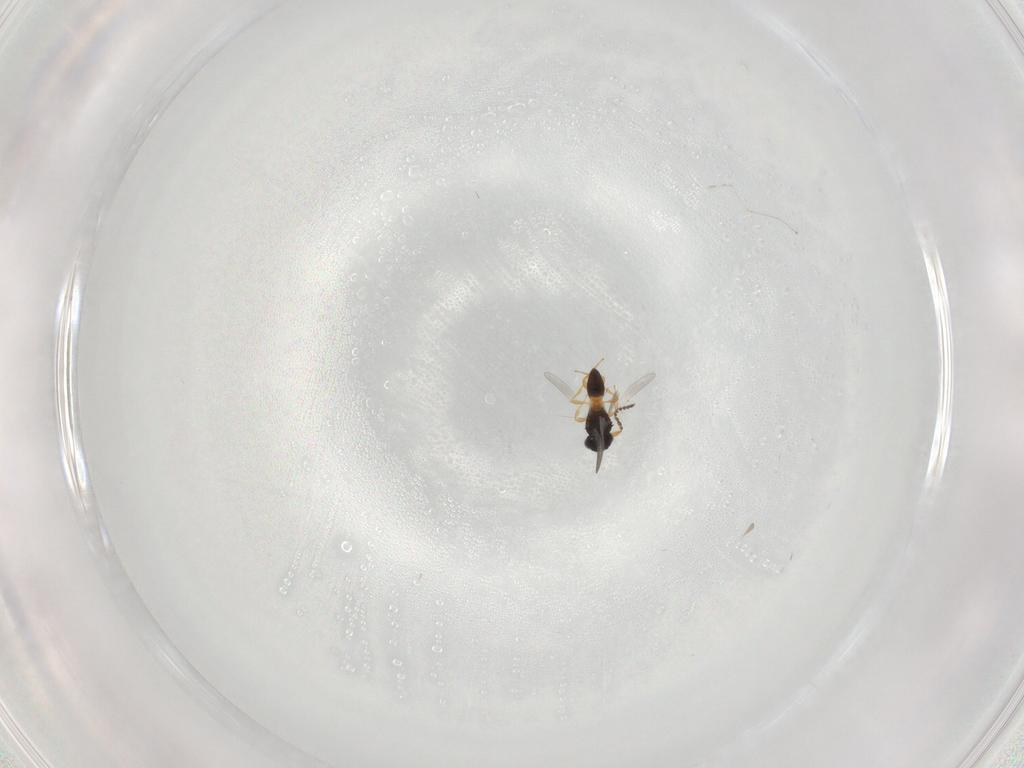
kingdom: Animalia
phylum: Arthropoda
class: Insecta
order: Hymenoptera
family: Platygastridae
